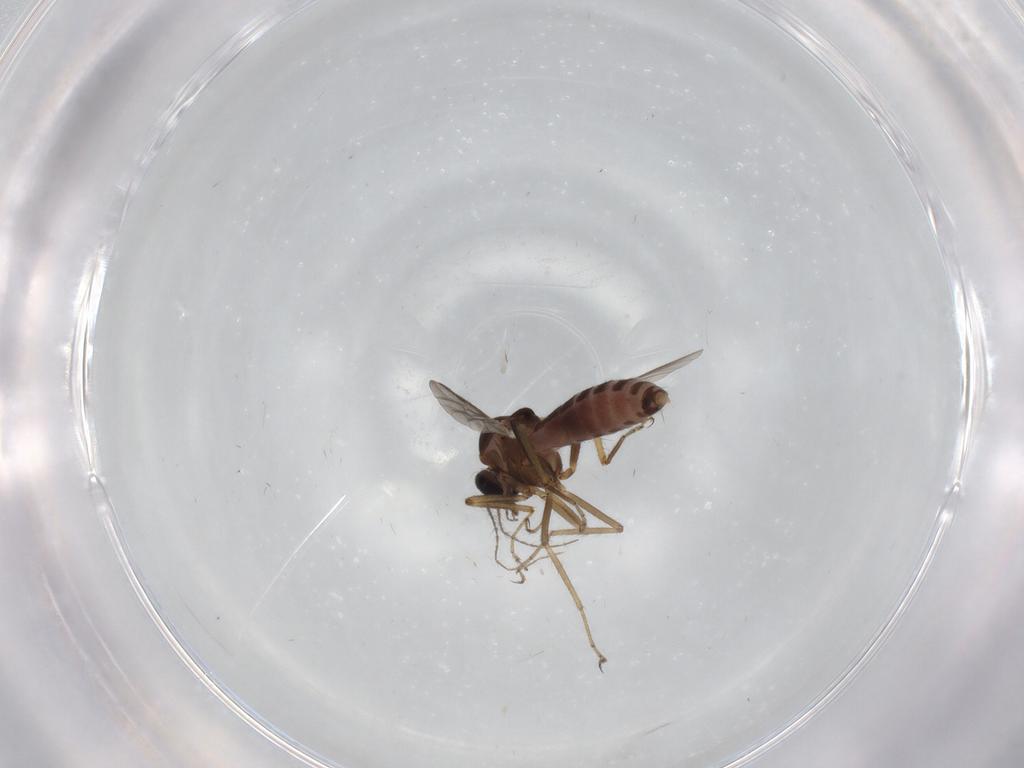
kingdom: Animalia
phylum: Arthropoda
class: Insecta
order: Diptera
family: Ceratopogonidae
